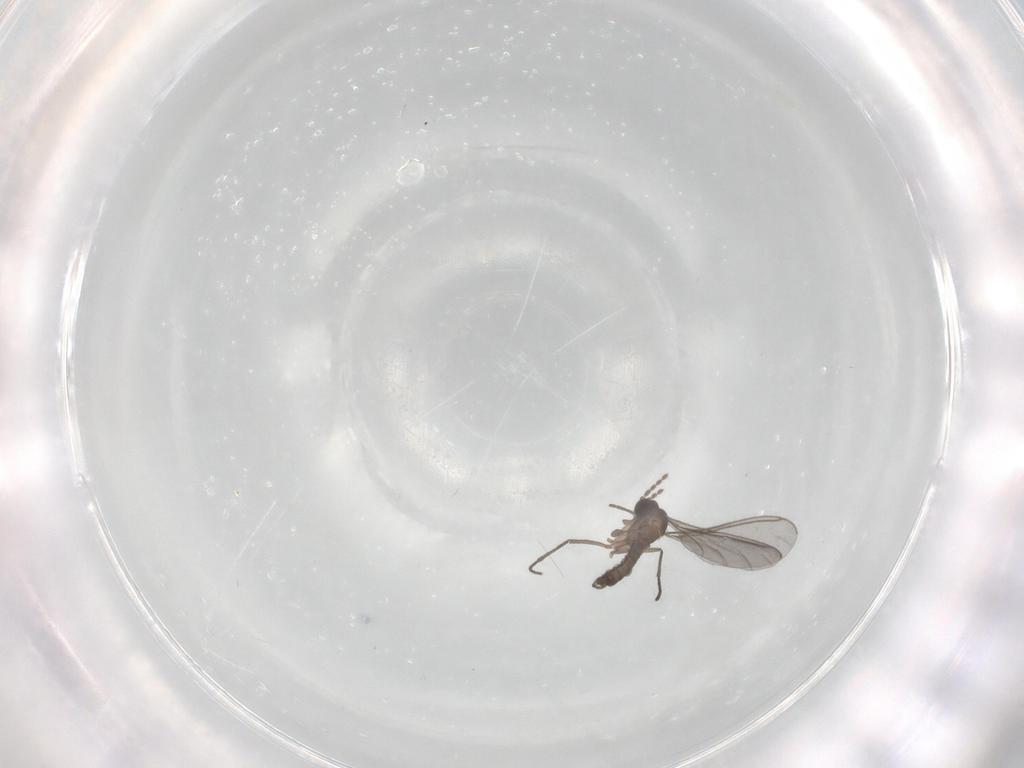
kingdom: Animalia
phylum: Arthropoda
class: Insecta
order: Diptera
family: Sciaridae
